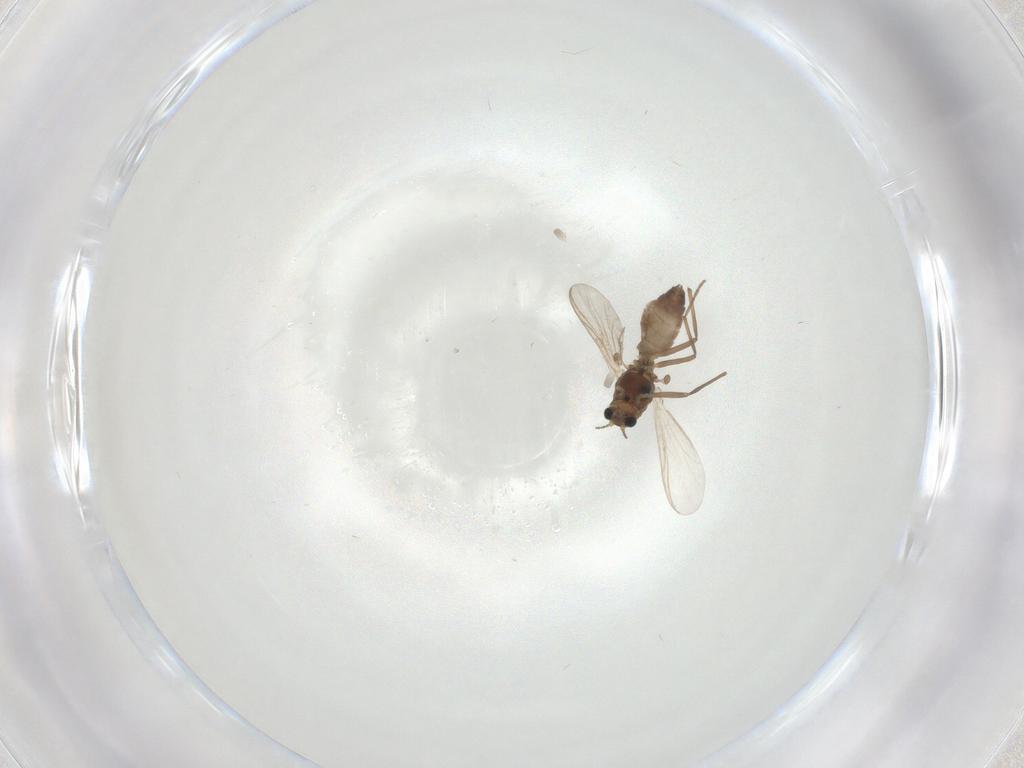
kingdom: Animalia
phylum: Arthropoda
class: Insecta
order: Diptera
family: Chironomidae
